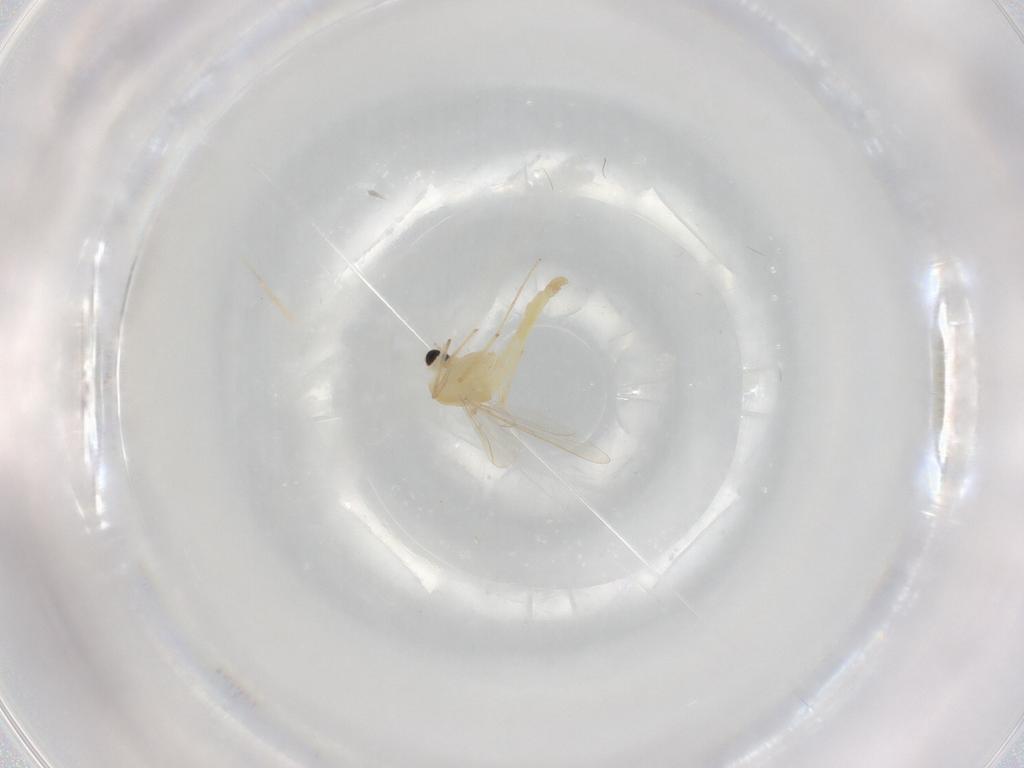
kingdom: Animalia
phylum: Arthropoda
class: Insecta
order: Diptera
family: Chironomidae
